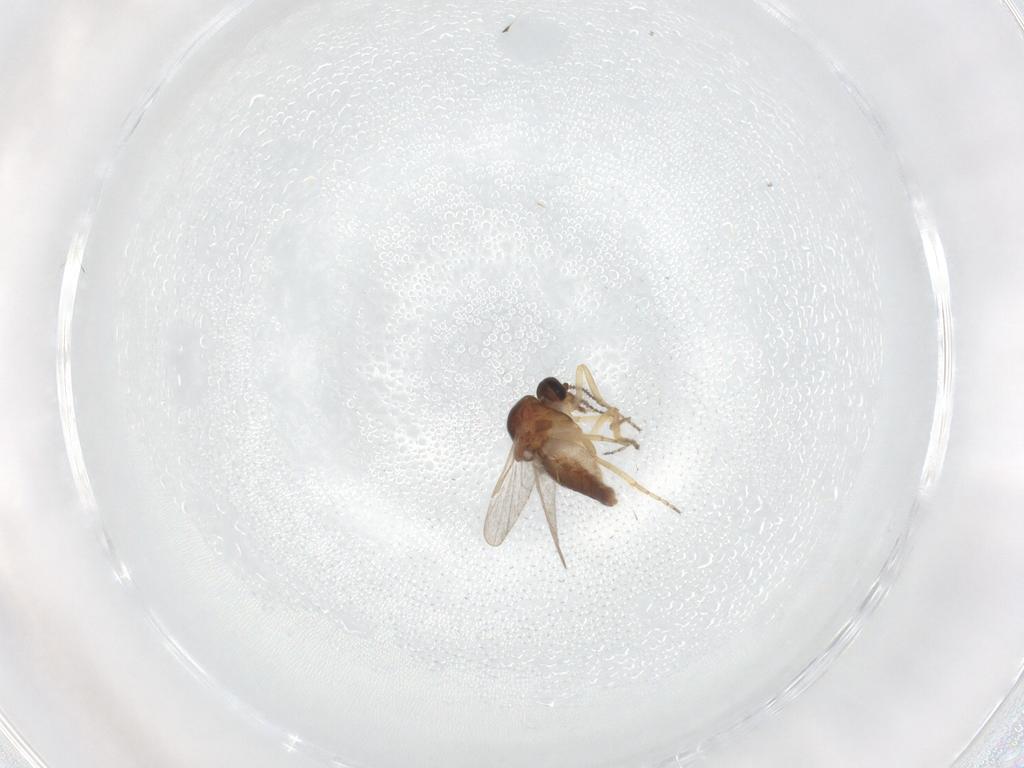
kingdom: Animalia
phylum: Arthropoda
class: Insecta
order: Diptera
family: Ceratopogonidae
